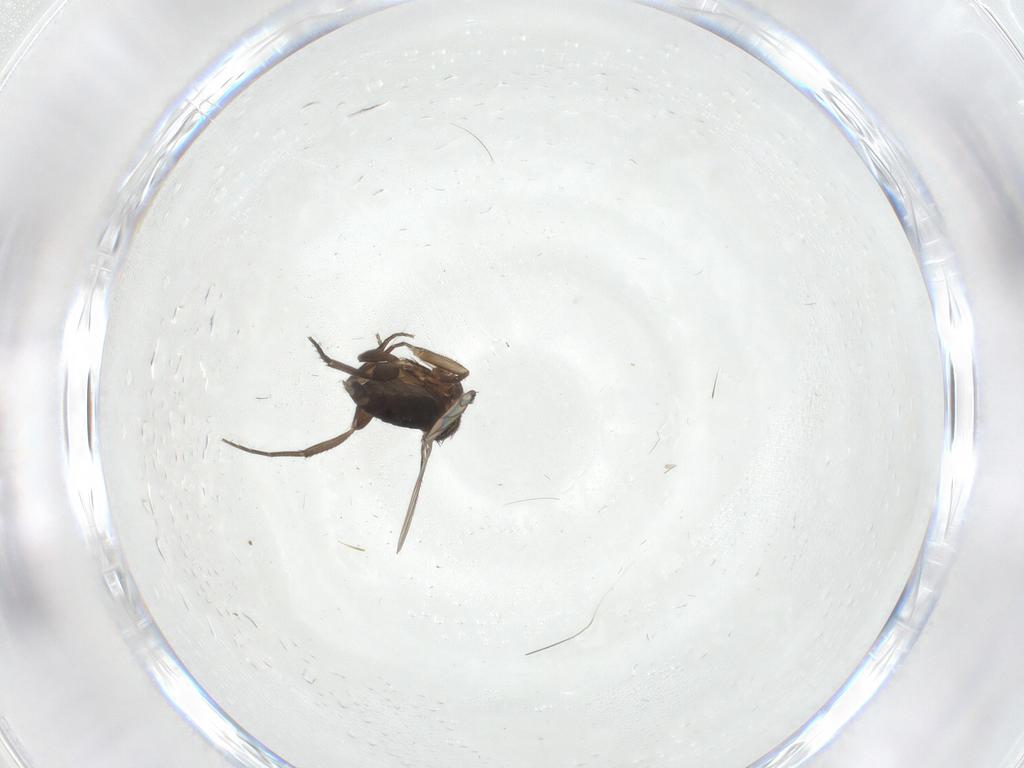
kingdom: Animalia
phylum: Arthropoda
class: Insecta
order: Diptera
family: Phoridae
